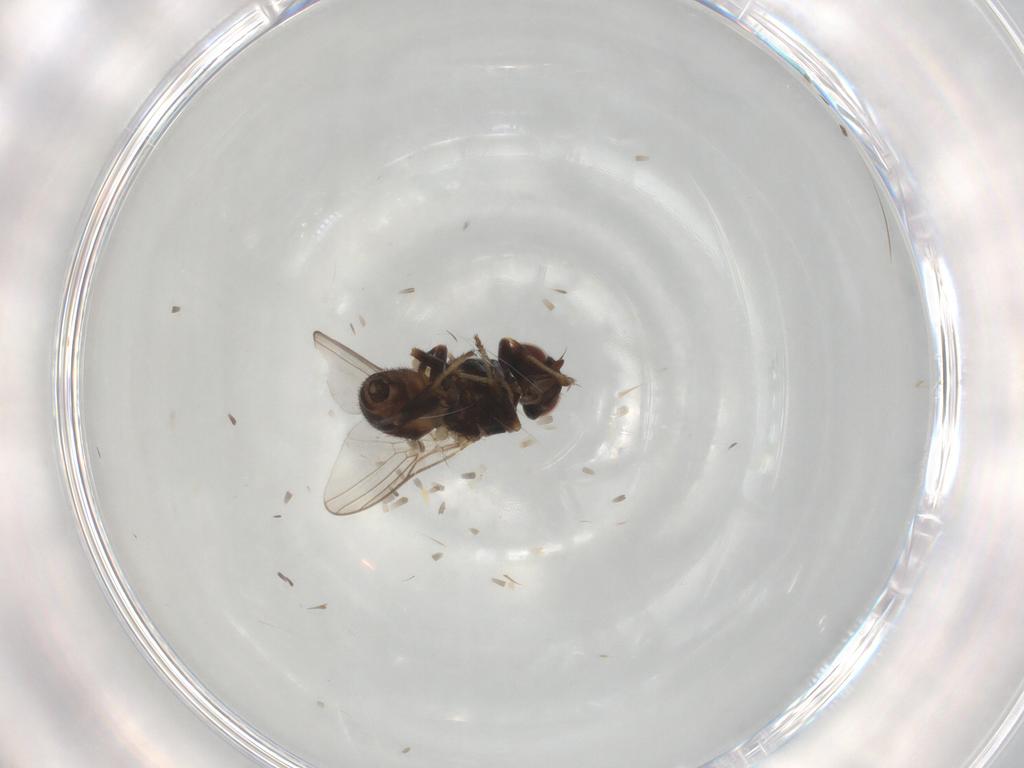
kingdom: Animalia
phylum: Arthropoda
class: Insecta
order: Diptera
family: Chloropidae
